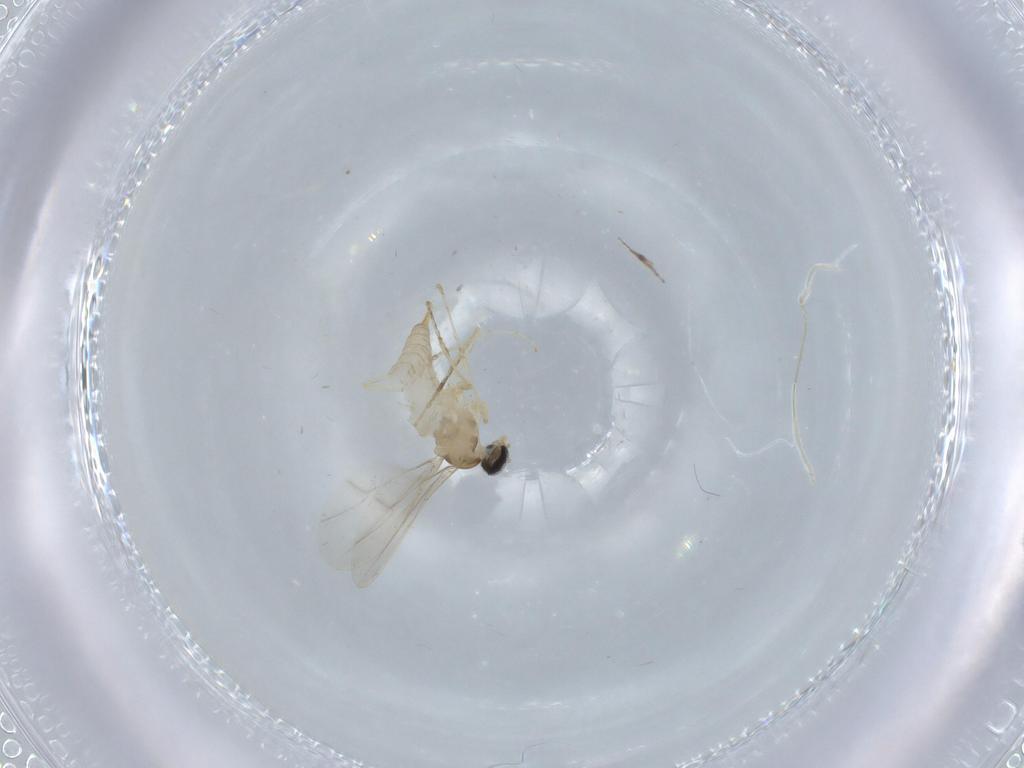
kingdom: Animalia
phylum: Arthropoda
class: Insecta
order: Diptera
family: Cecidomyiidae
